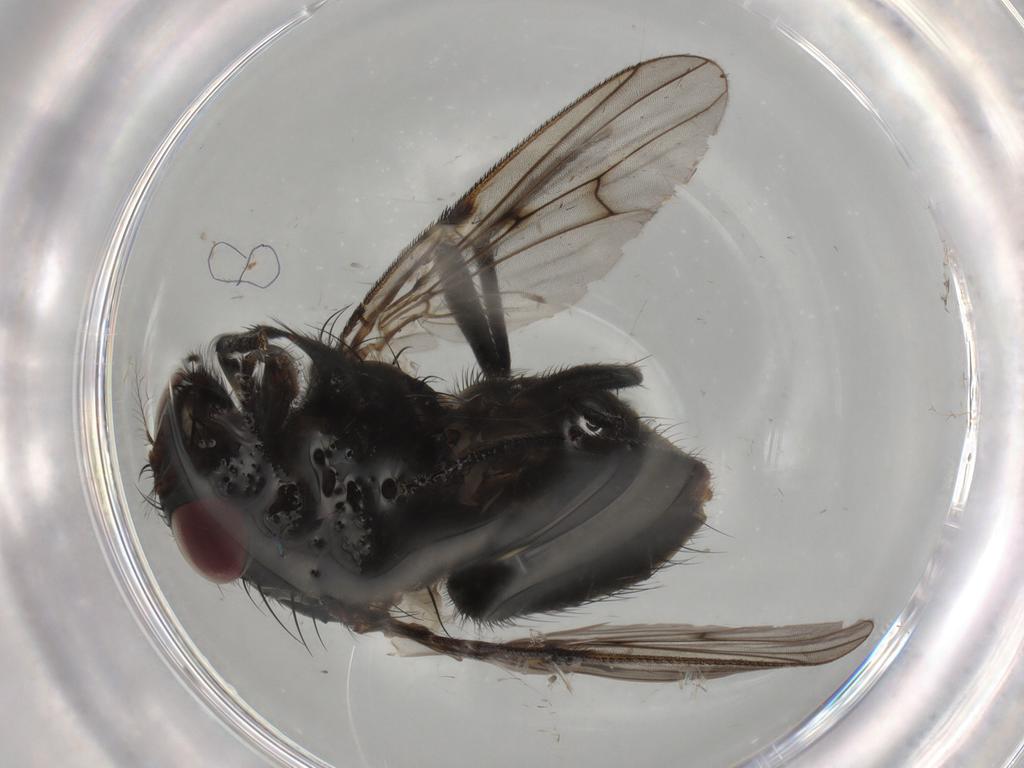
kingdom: Animalia
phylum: Arthropoda
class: Insecta
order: Diptera
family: Muscidae
